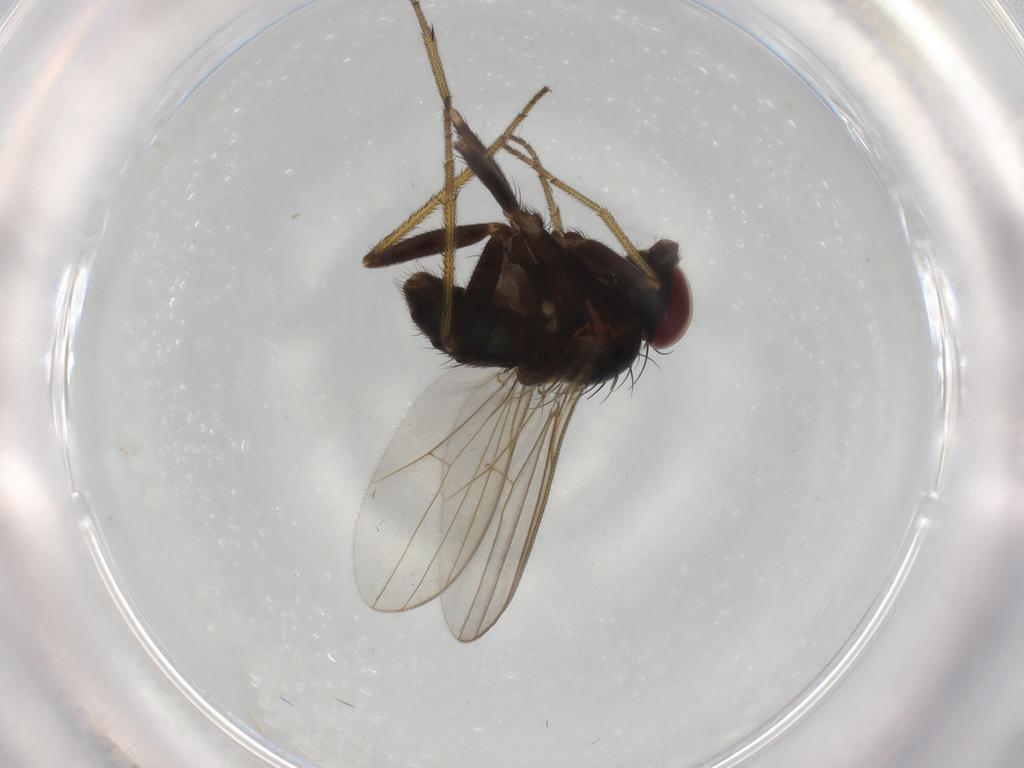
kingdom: Animalia
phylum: Arthropoda
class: Insecta
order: Diptera
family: Dolichopodidae
